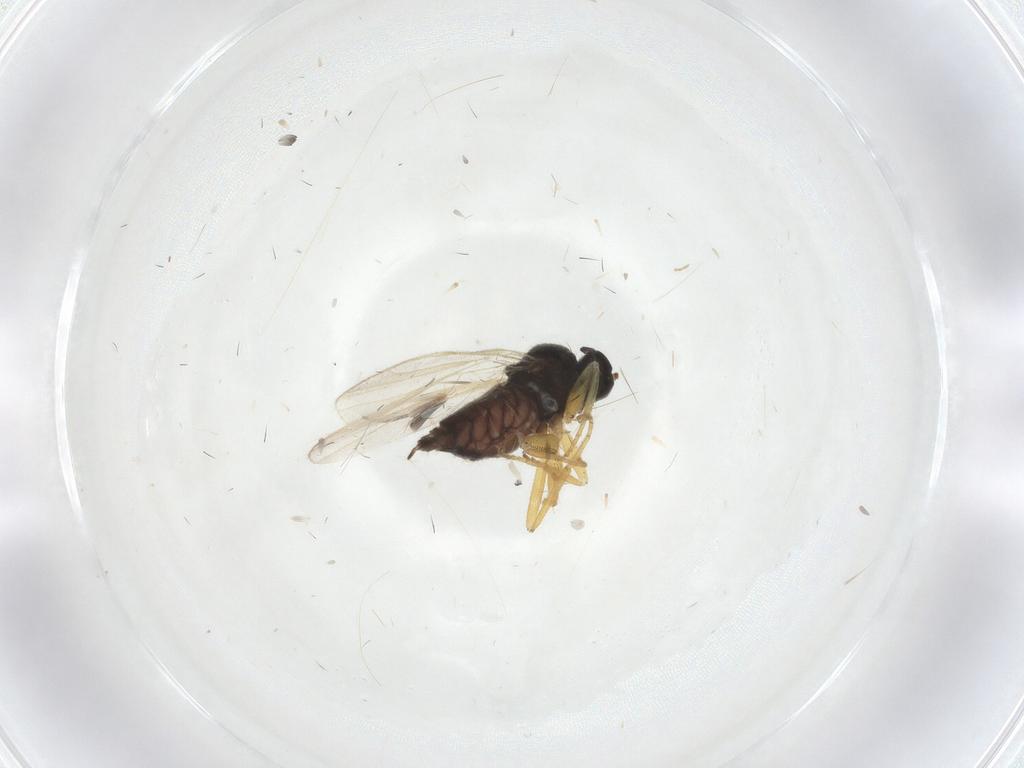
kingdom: Animalia
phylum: Arthropoda
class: Insecta
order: Diptera
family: Hybotidae
